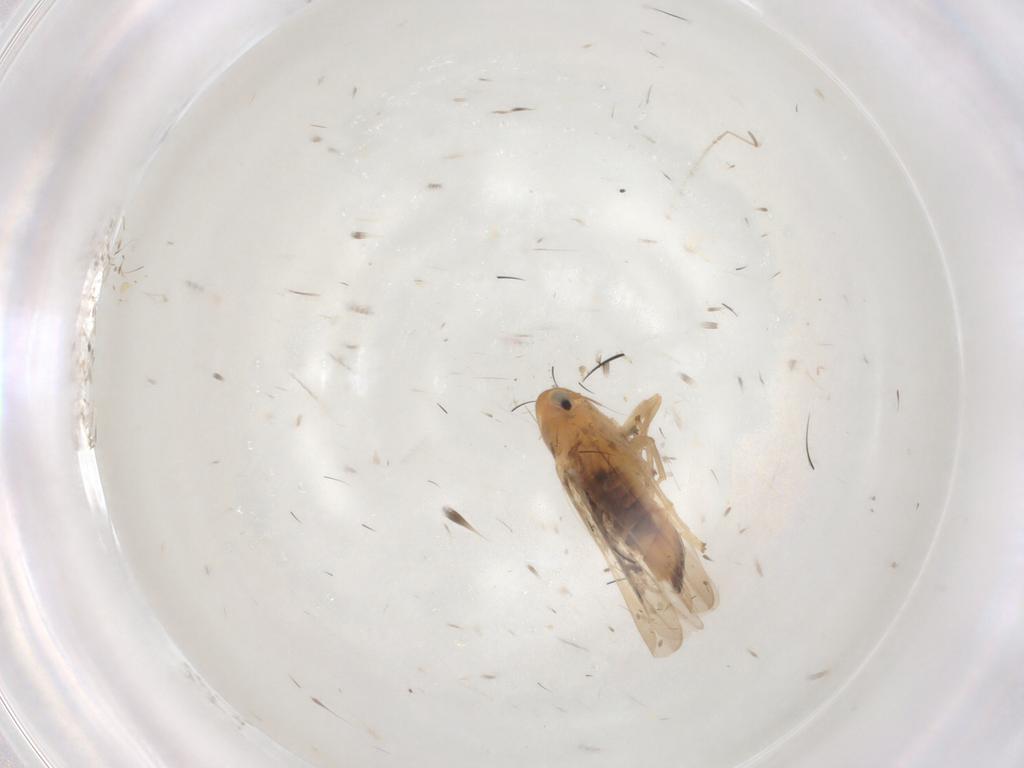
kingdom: Animalia
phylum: Arthropoda
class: Insecta
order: Hemiptera
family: Cicadellidae
